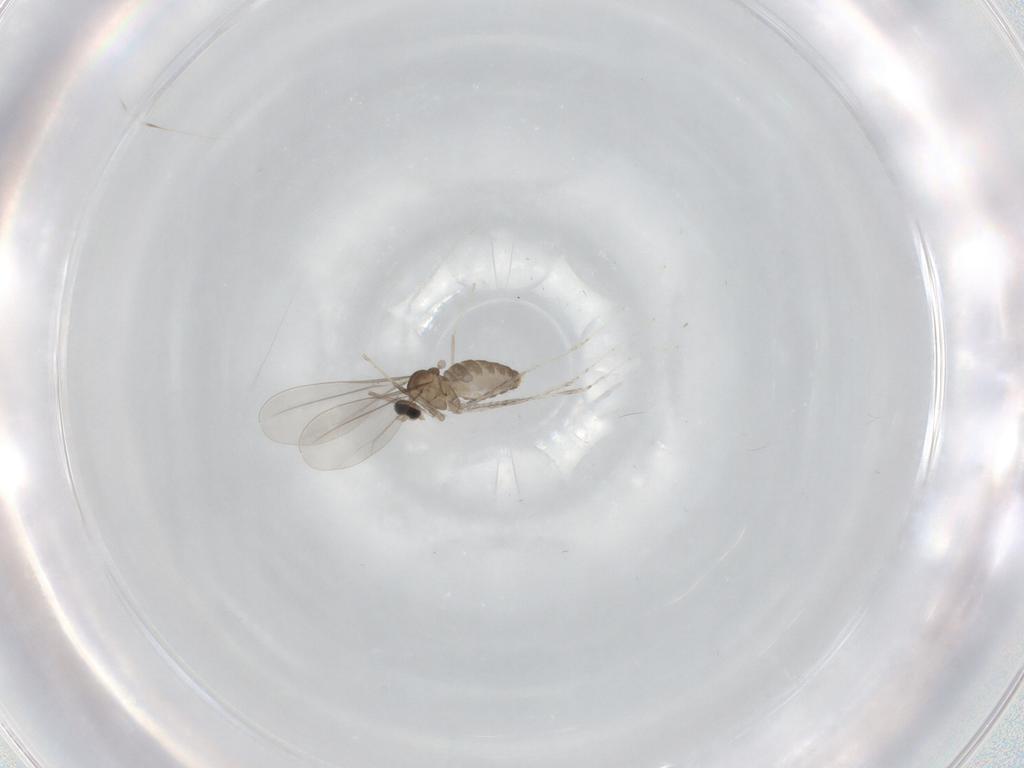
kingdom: Animalia
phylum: Arthropoda
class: Insecta
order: Diptera
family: Cecidomyiidae
